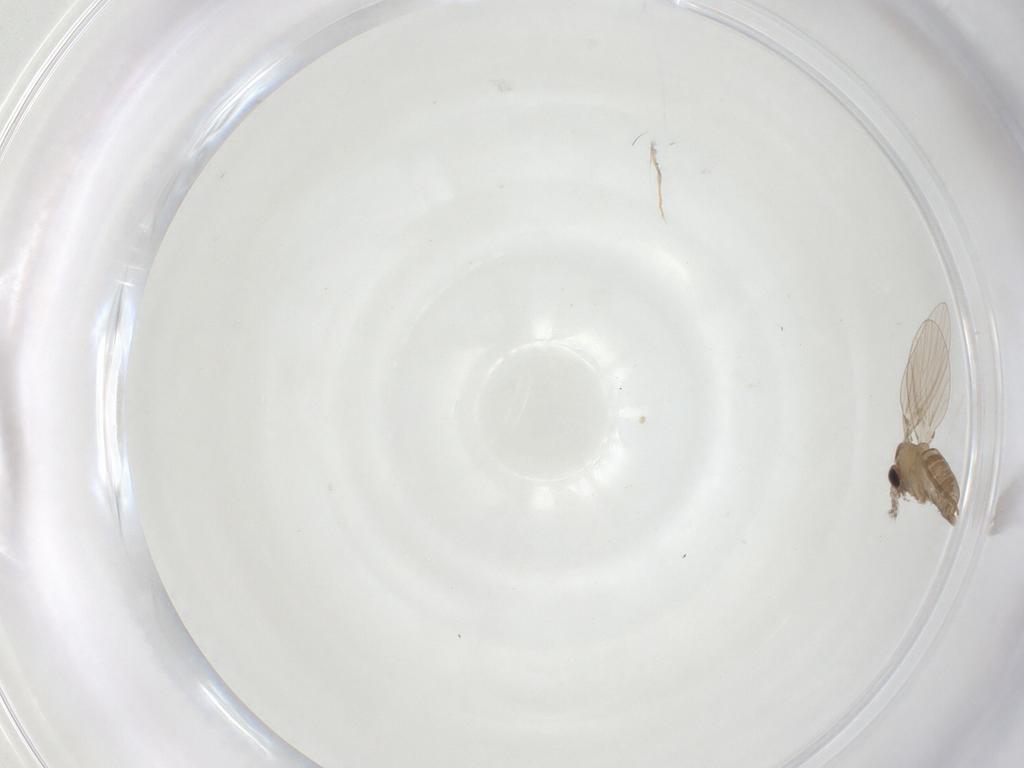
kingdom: Animalia
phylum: Arthropoda
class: Insecta
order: Diptera
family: Psychodidae
